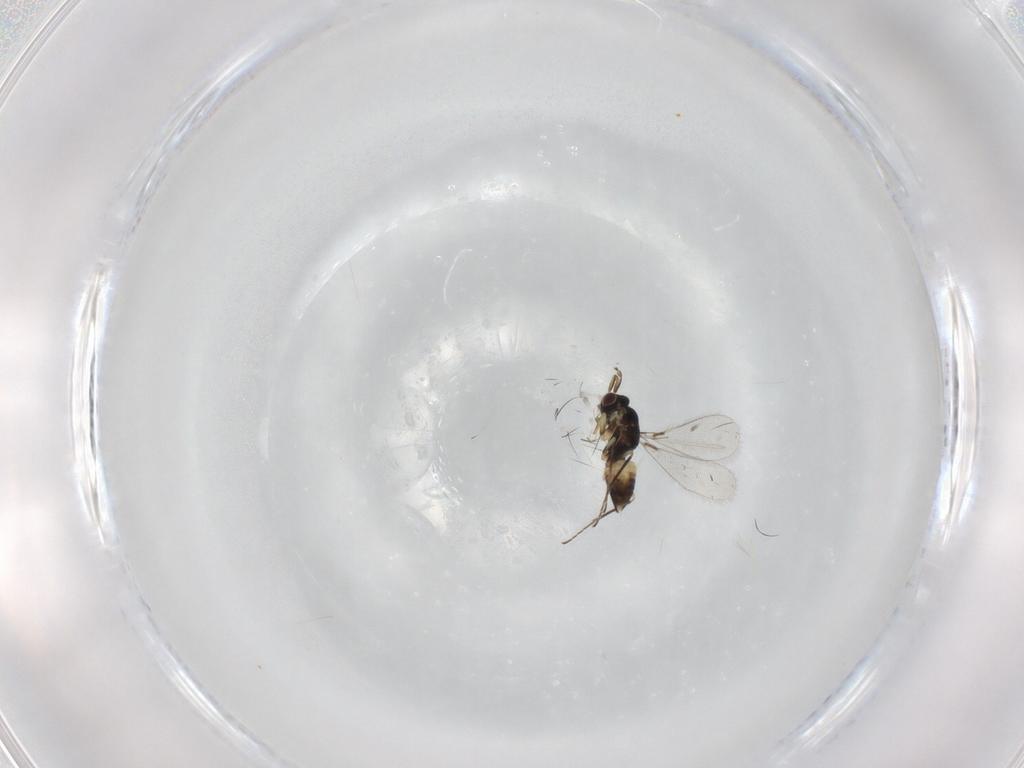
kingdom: Animalia
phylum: Arthropoda
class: Insecta
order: Hymenoptera
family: Mymaridae
